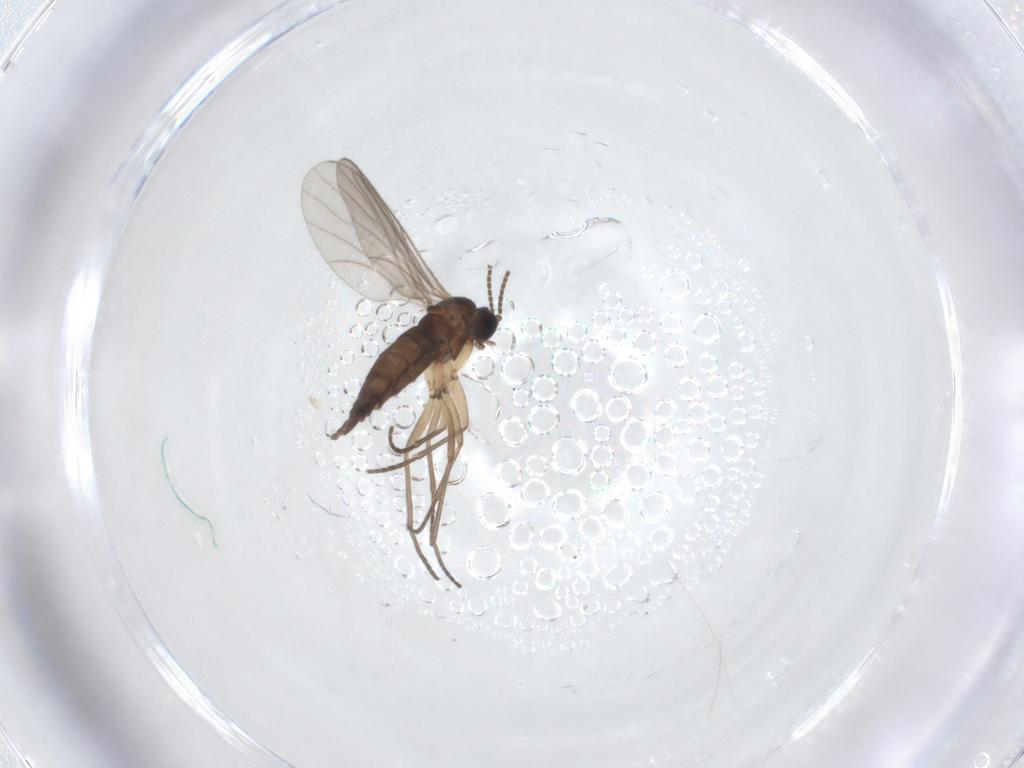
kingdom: Animalia
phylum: Arthropoda
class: Insecta
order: Diptera
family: Sciaridae
